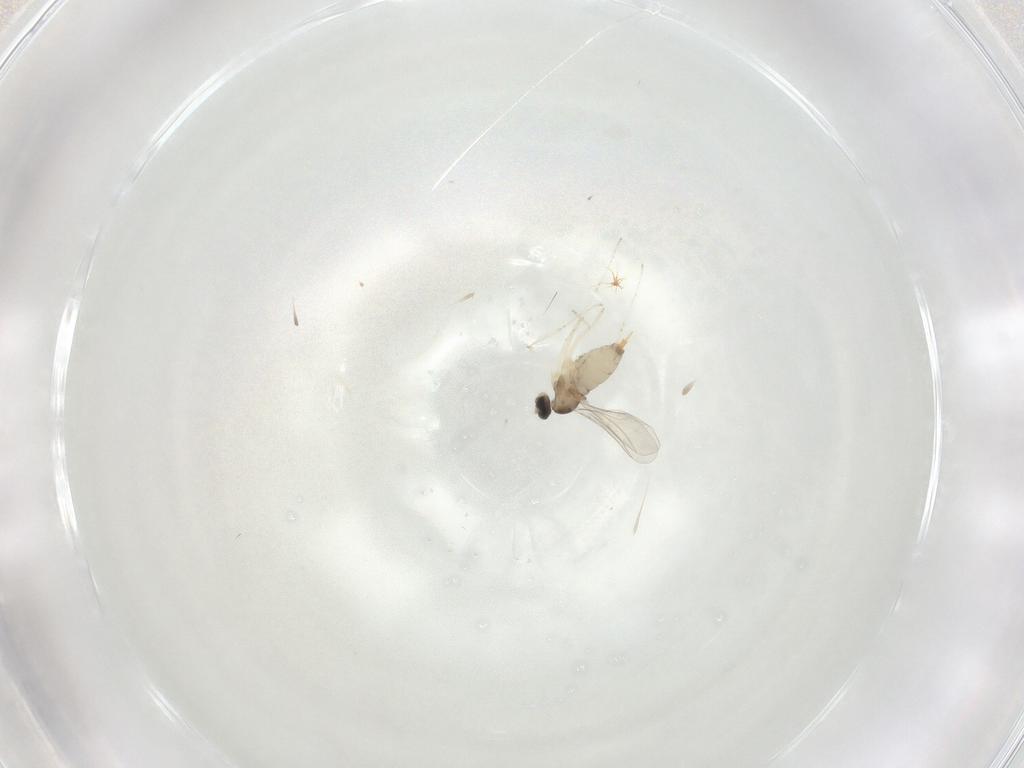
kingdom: Animalia
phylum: Arthropoda
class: Insecta
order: Diptera
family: Cecidomyiidae
